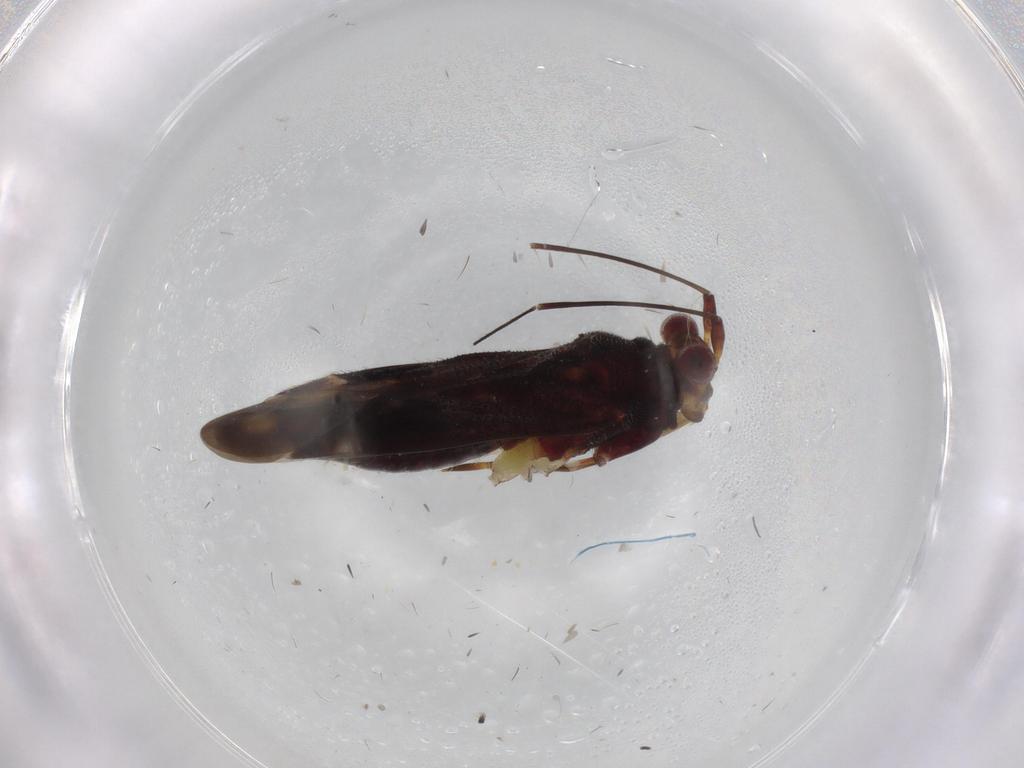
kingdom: Animalia
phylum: Arthropoda
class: Insecta
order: Hemiptera
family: Miridae
